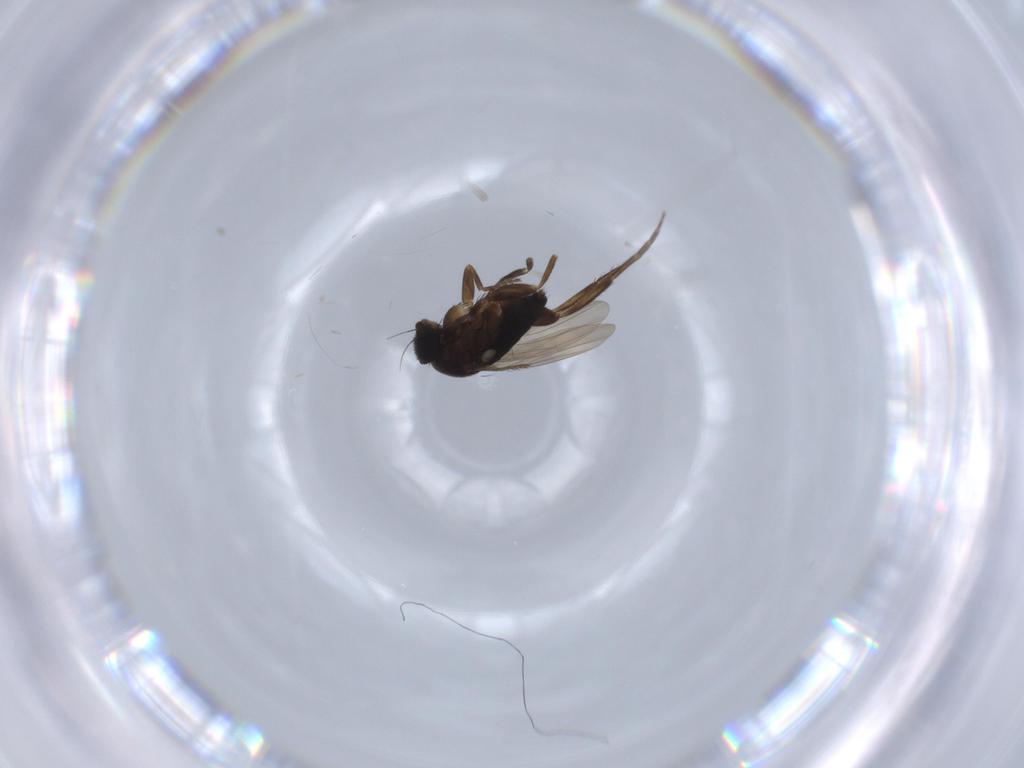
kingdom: Animalia
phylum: Arthropoda
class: Insecta
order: Diptera
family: Phoridae
